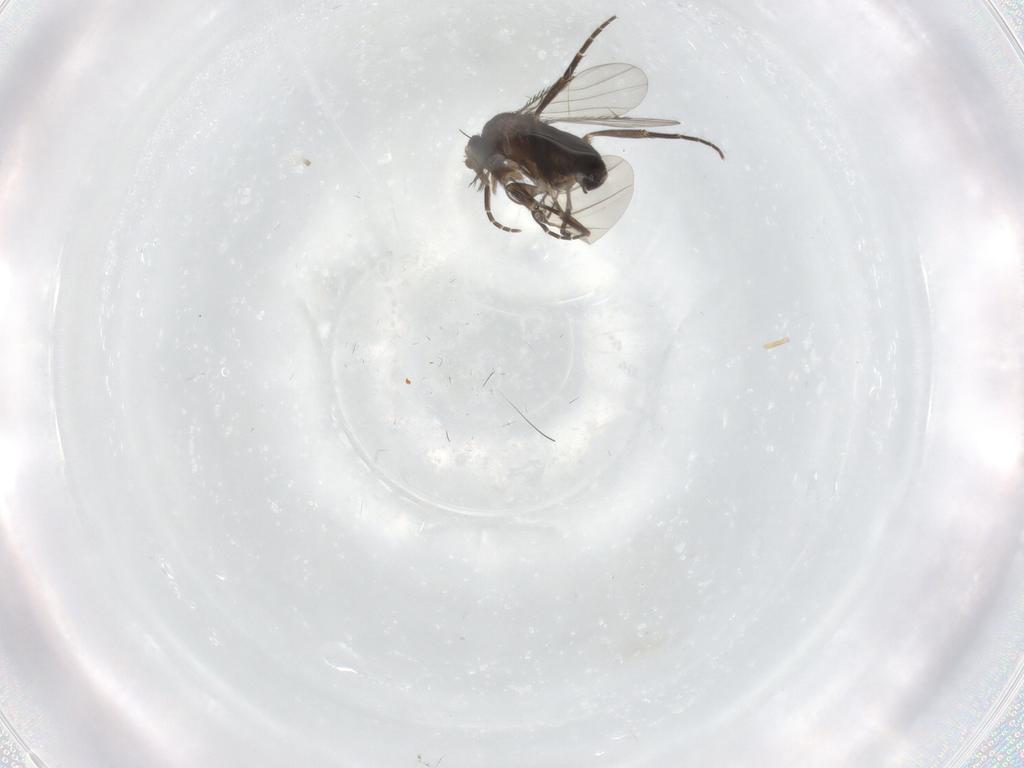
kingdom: Animalia
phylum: Arthropoda
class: Insecta
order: Diptera
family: Phoridae
